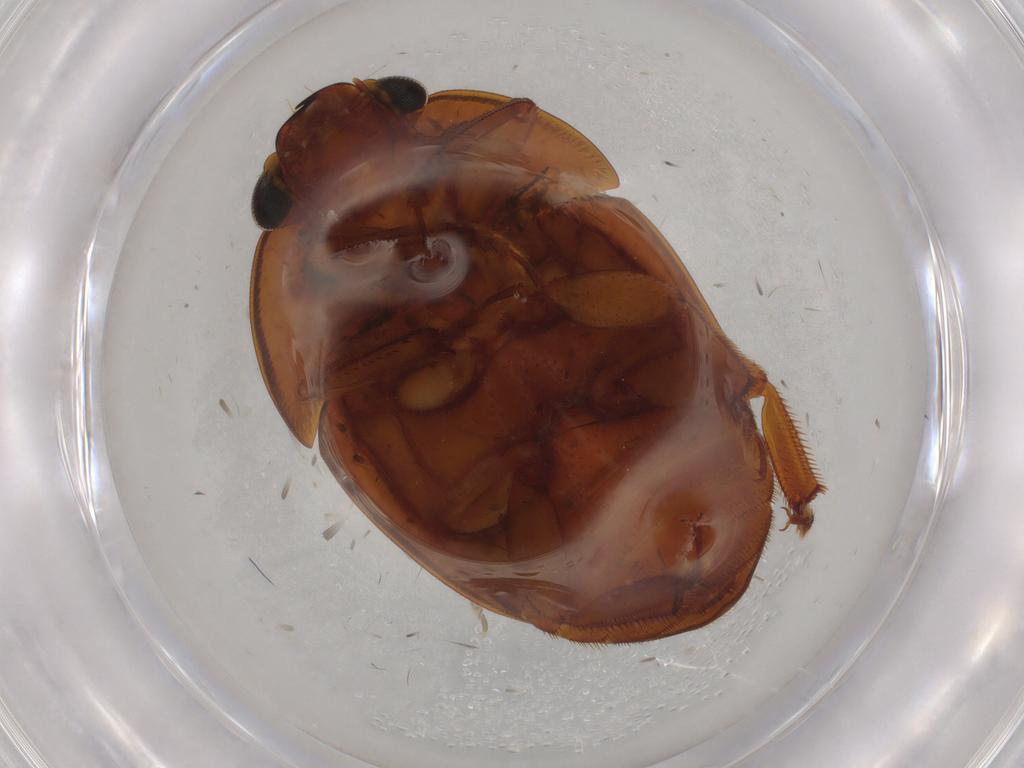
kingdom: Animalia
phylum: Arthropoda
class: Insecta
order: Coleoptera
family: Nitidulidae
